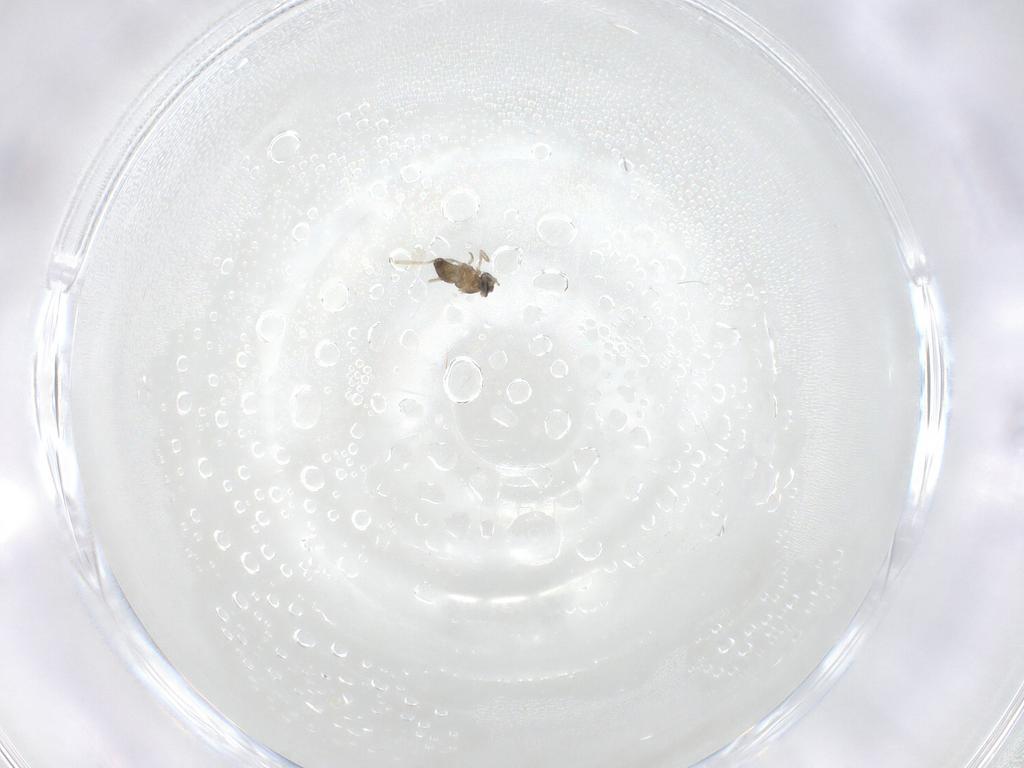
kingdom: Animalia
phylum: Arthropoda
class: Insecta
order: Diptera
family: Cecidomyiidae
